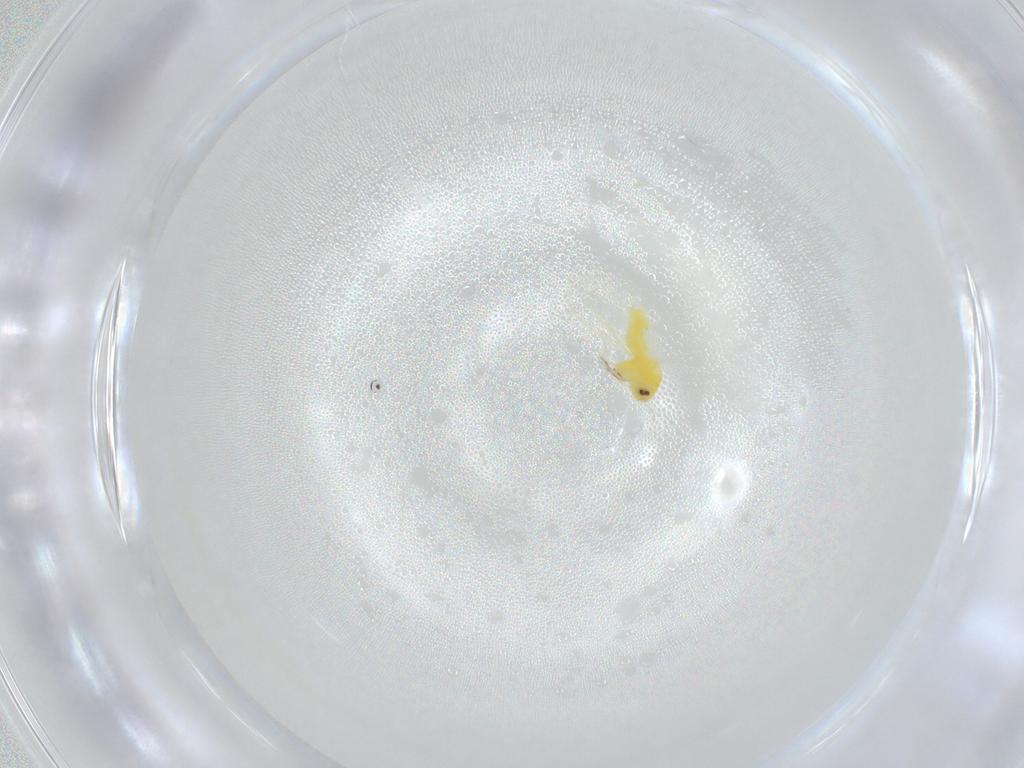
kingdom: Animalia
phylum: Arthropoda
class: Insecta
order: Hemiptera
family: Aleyrodidae
